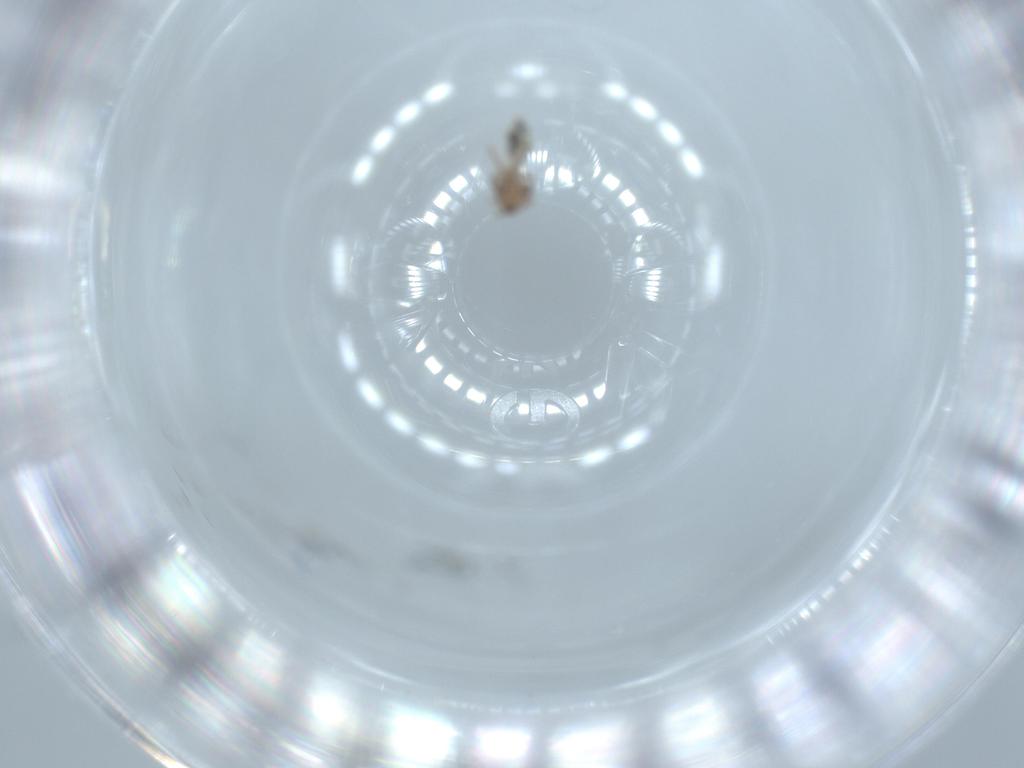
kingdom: Animalia
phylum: Arthropoda
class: Insecta
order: Psocodea
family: Lepidopsocidae
